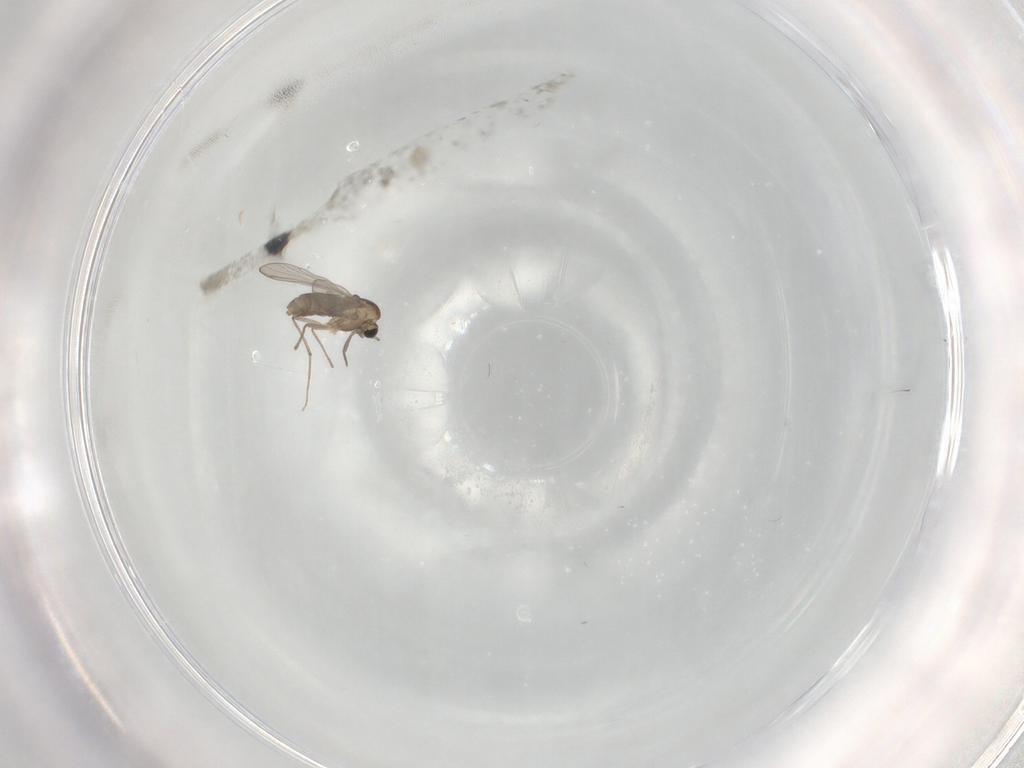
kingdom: Animalia
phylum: Arthropoda
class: Insecta
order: Diptera
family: Chironomidae
